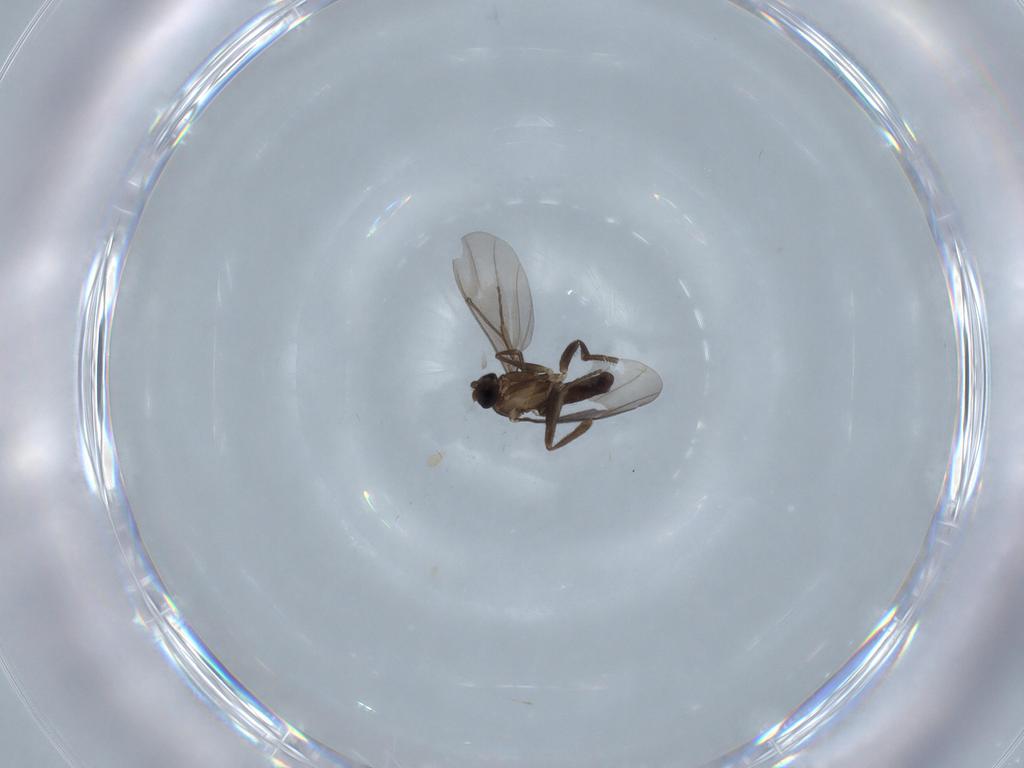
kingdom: Animalia
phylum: Arthropoda
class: Insecta
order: Diptera
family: Phoridae
